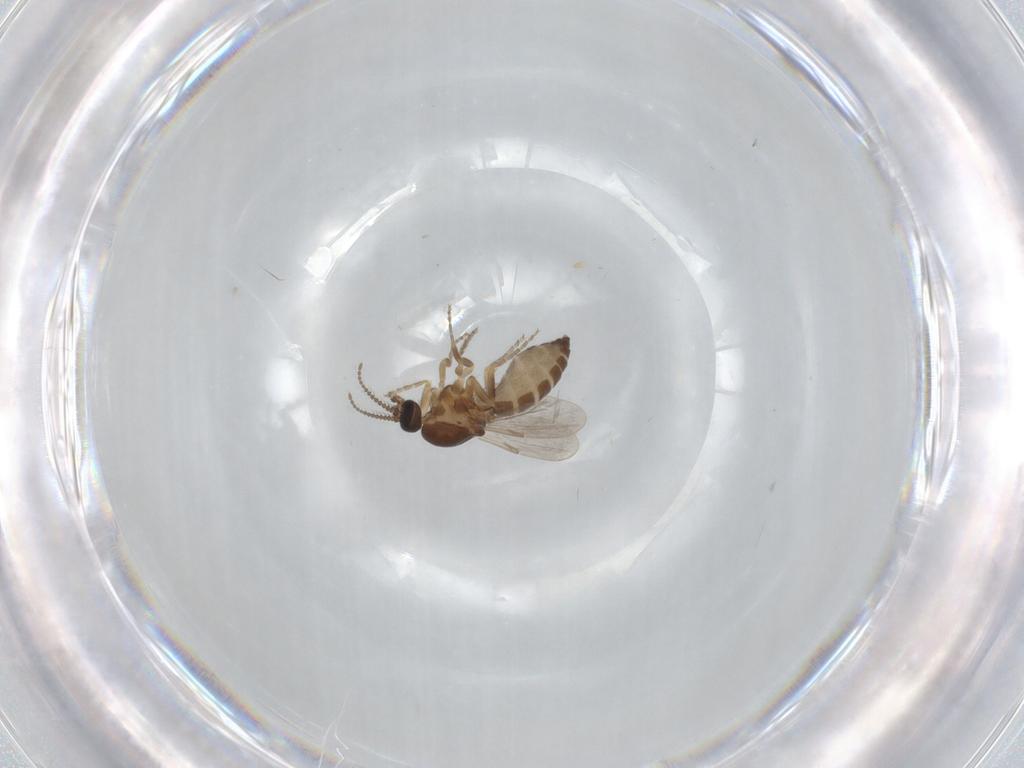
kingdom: Animalia
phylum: Arthropoda
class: Insecta
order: Diptera
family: Ceratopogonidae
